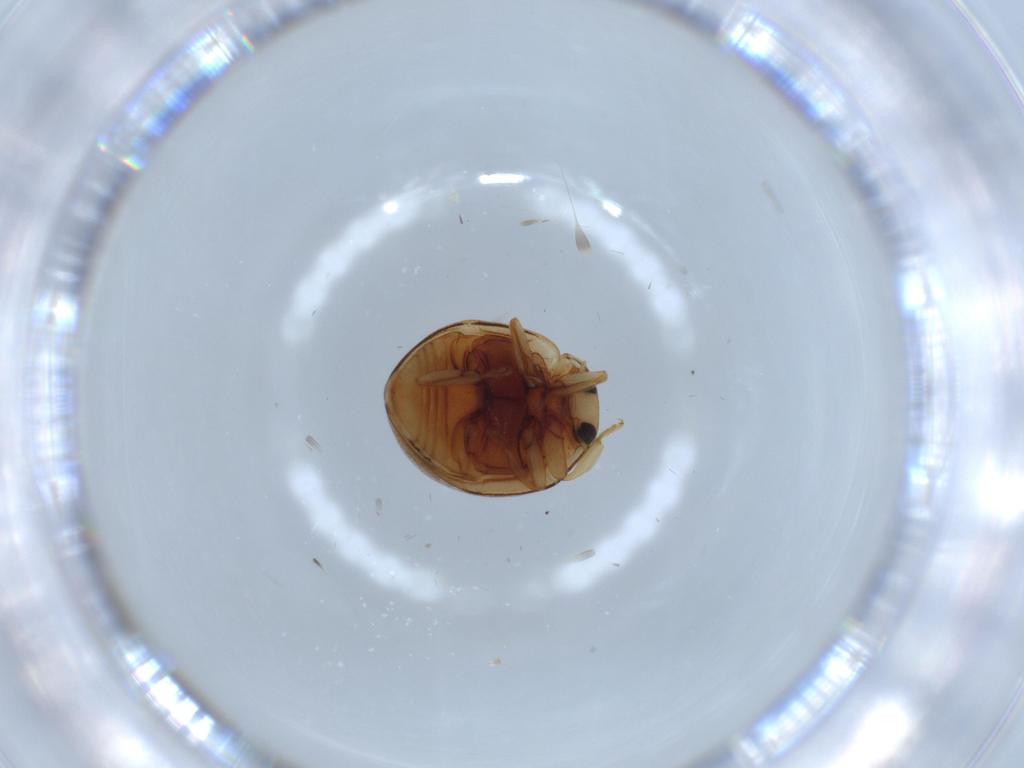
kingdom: Animalia
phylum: Arthropoda
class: Insecta
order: Coleoptera
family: Coccinellidae
